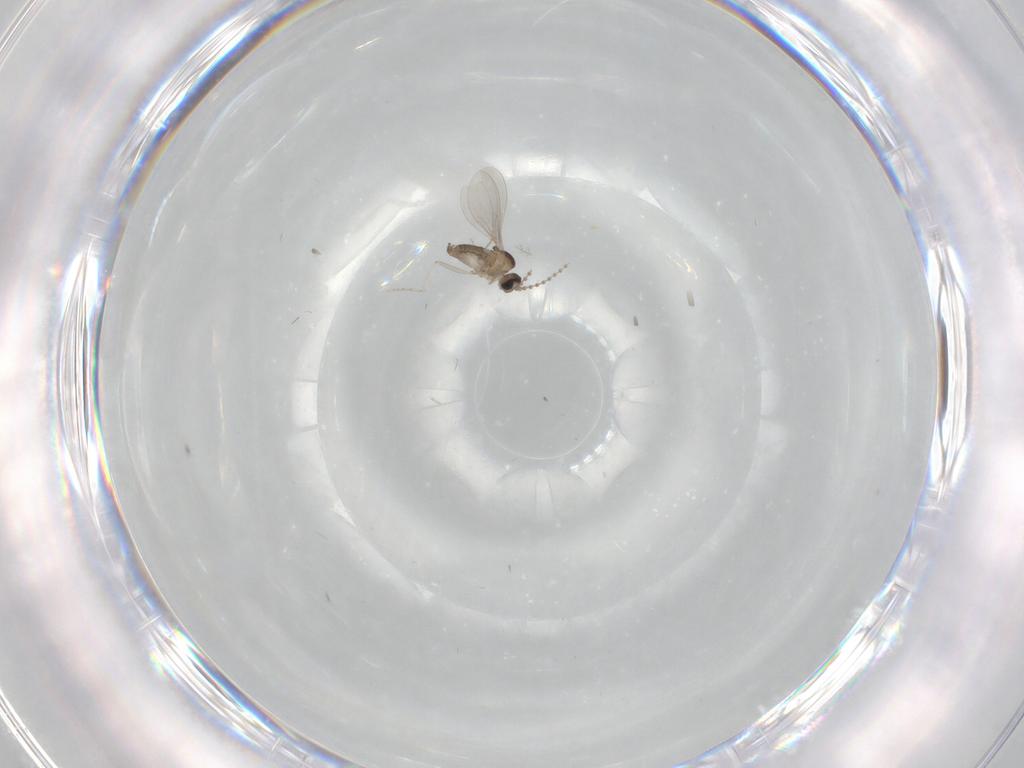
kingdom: Animalia
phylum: Arthropoda
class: Insecta
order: Diptera
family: Cecidomyiidae
